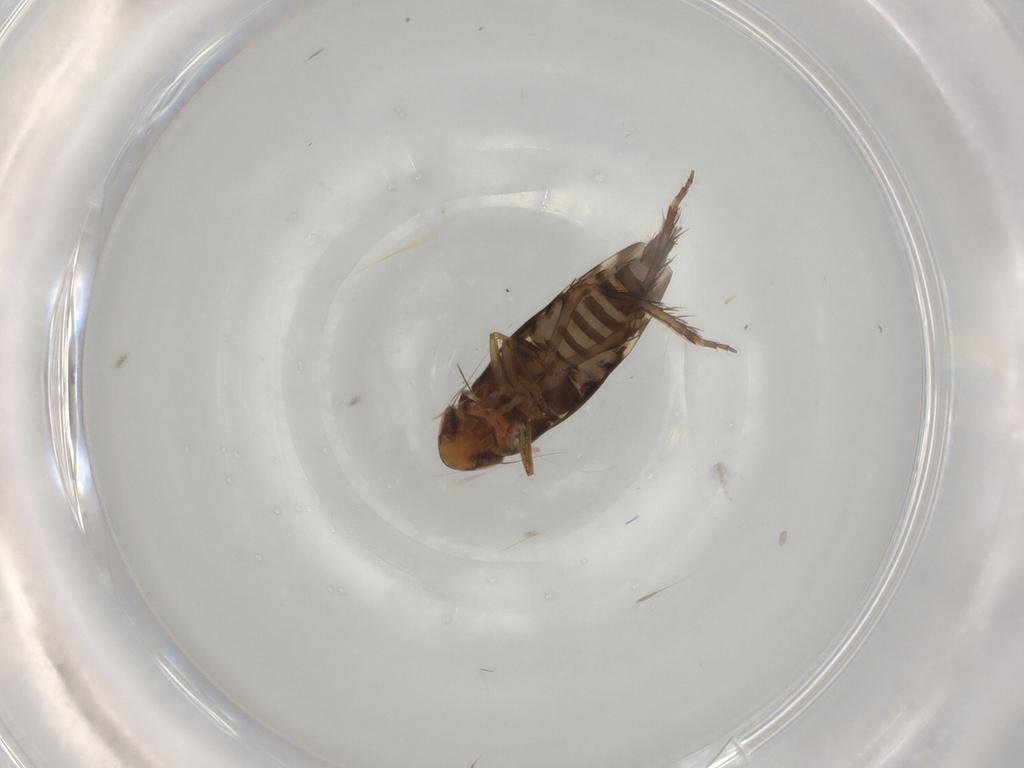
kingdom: Animalia
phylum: Arthropoda
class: Insecta
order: Hemiptera
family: Cicadellidae
